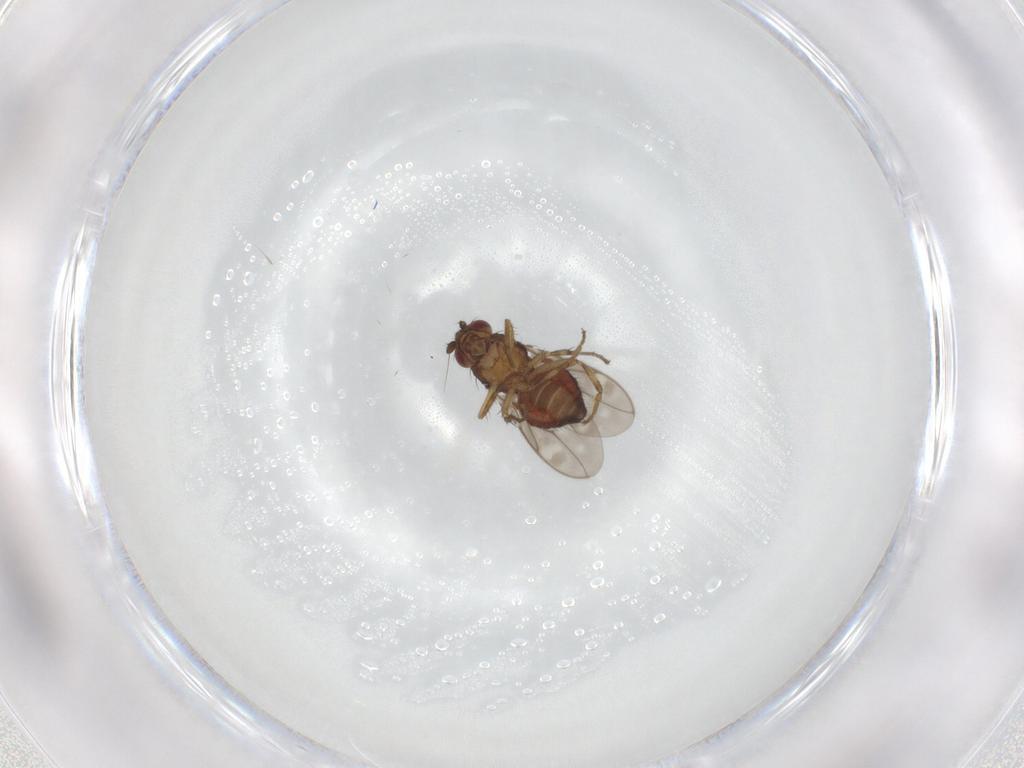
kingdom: Animalia
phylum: Arthropoda
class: Insecta
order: Diptera
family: Sphaeroceridae
